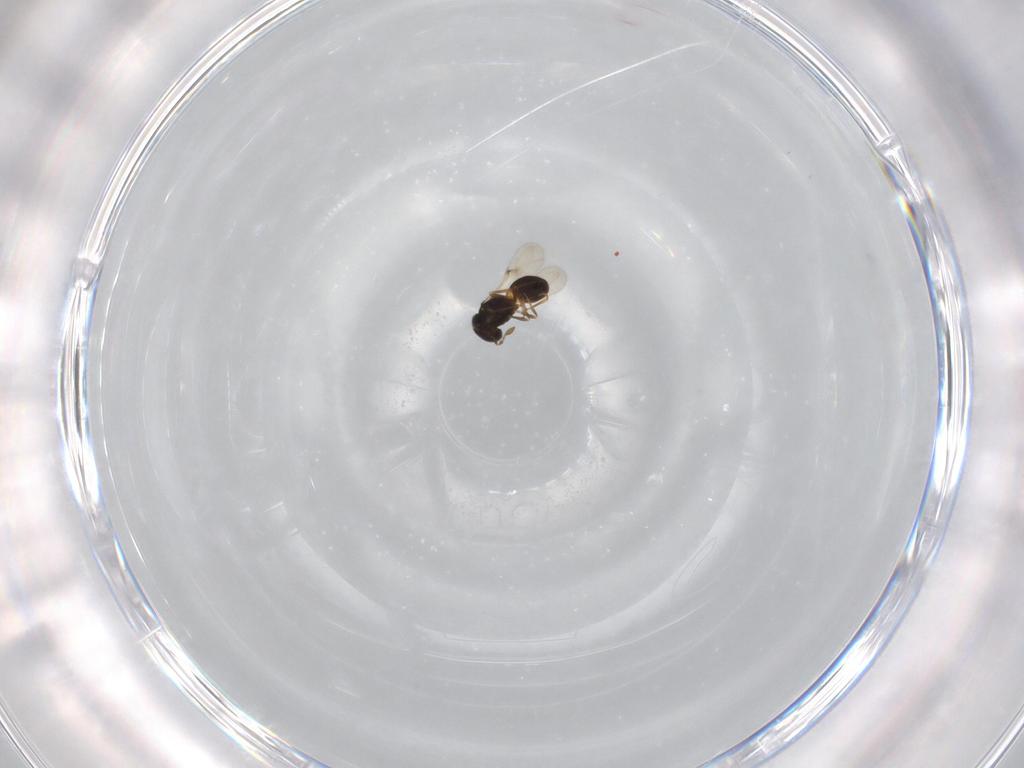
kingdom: Animalia
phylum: Arthropoda
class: Insecta
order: Hymenoptera
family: Scelionidae
